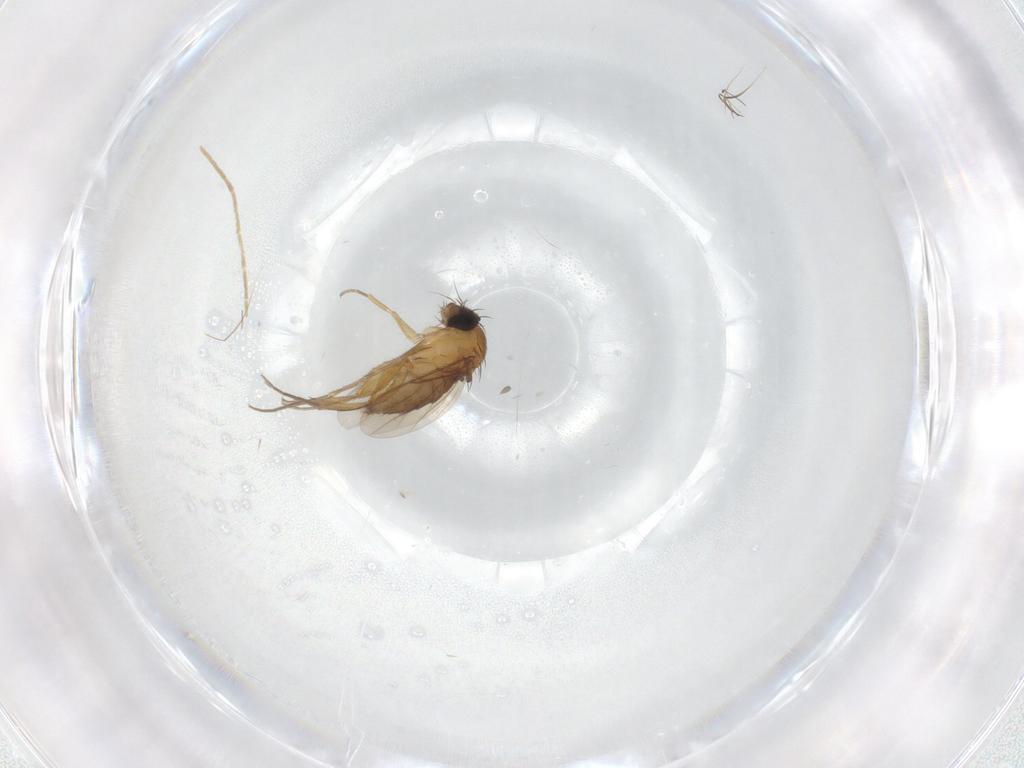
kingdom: Animalia
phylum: Arthropoda
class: Insecta
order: Diptera
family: Phoridae
